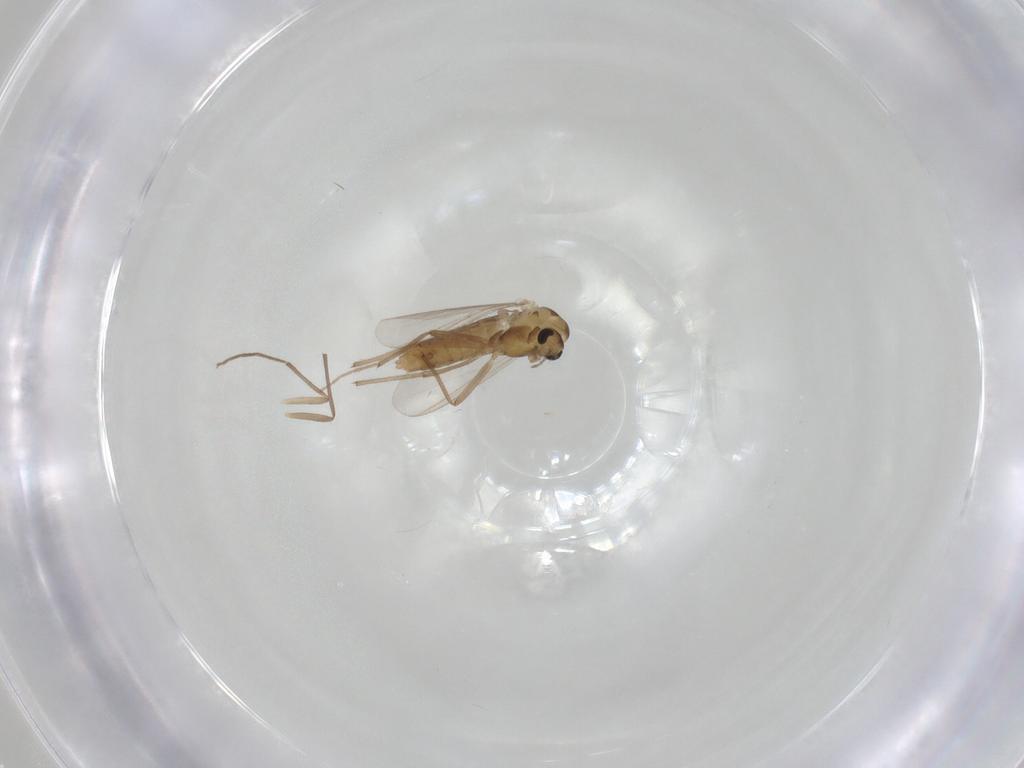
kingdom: Animalia
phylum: Arthropoda
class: Insecta
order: Diptera
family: Chironomidae
